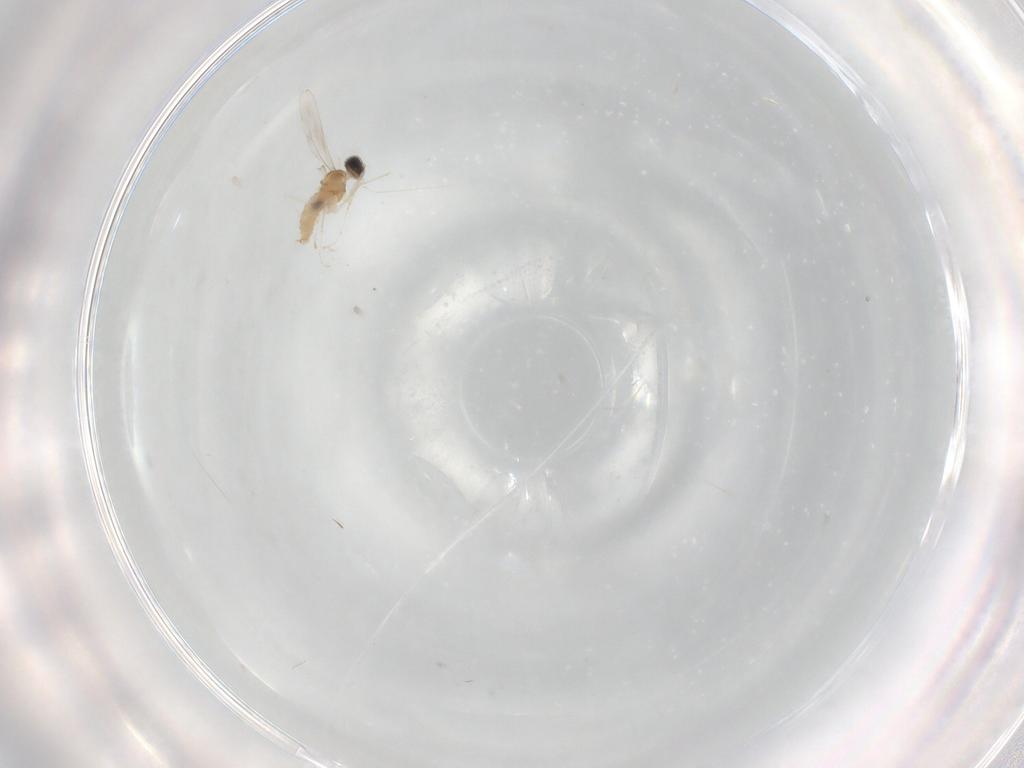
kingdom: Animalia
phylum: Arthropoda
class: Insecta
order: Diptera
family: Cecidomyiidae
